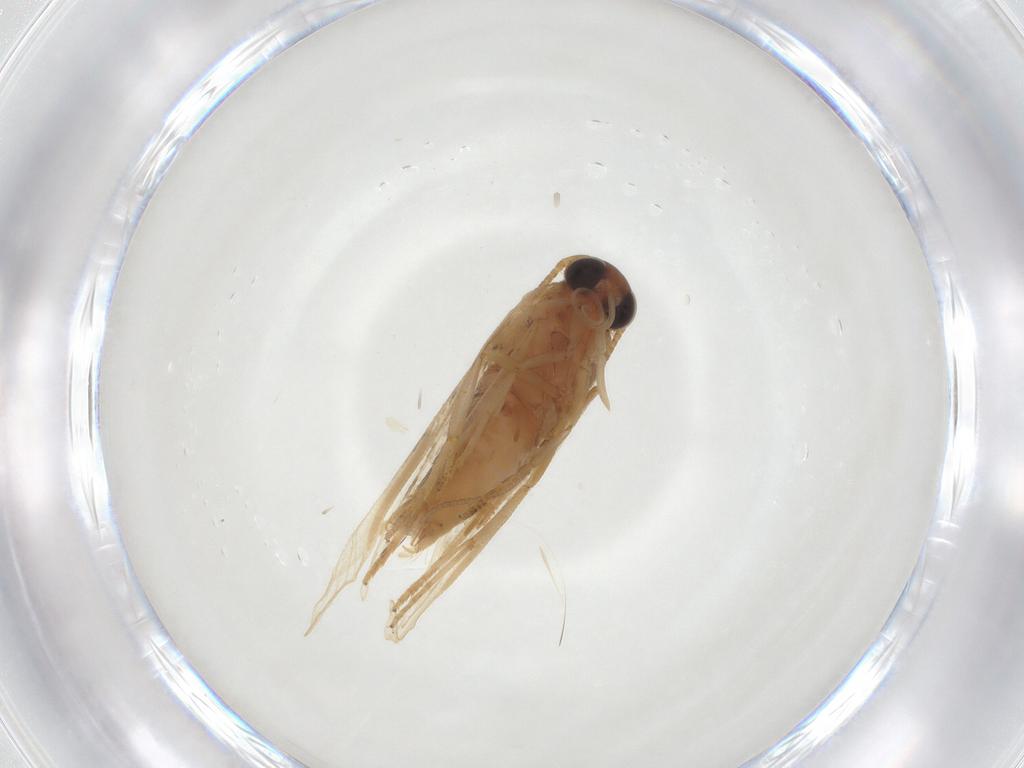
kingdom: Animalia
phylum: Arthropoda
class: Insecta
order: Lepidoptera
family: Blastobasidae
